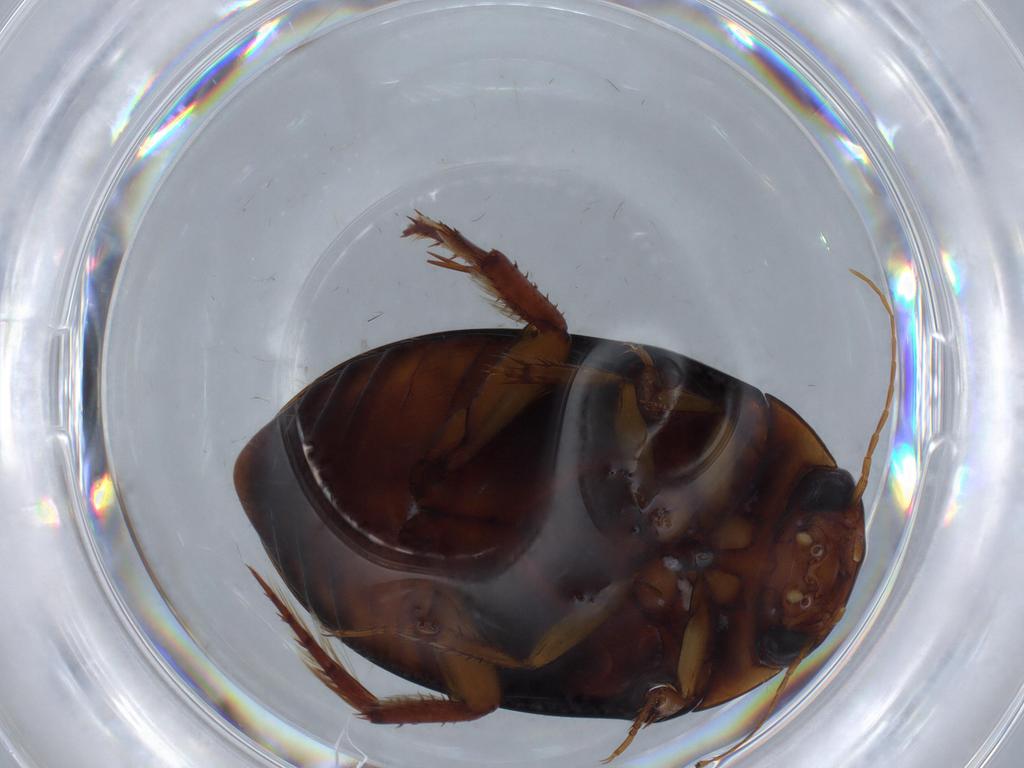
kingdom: Animalia
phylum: Arthropoda
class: Insecta
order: Coleoptera
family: Dytiscidae
